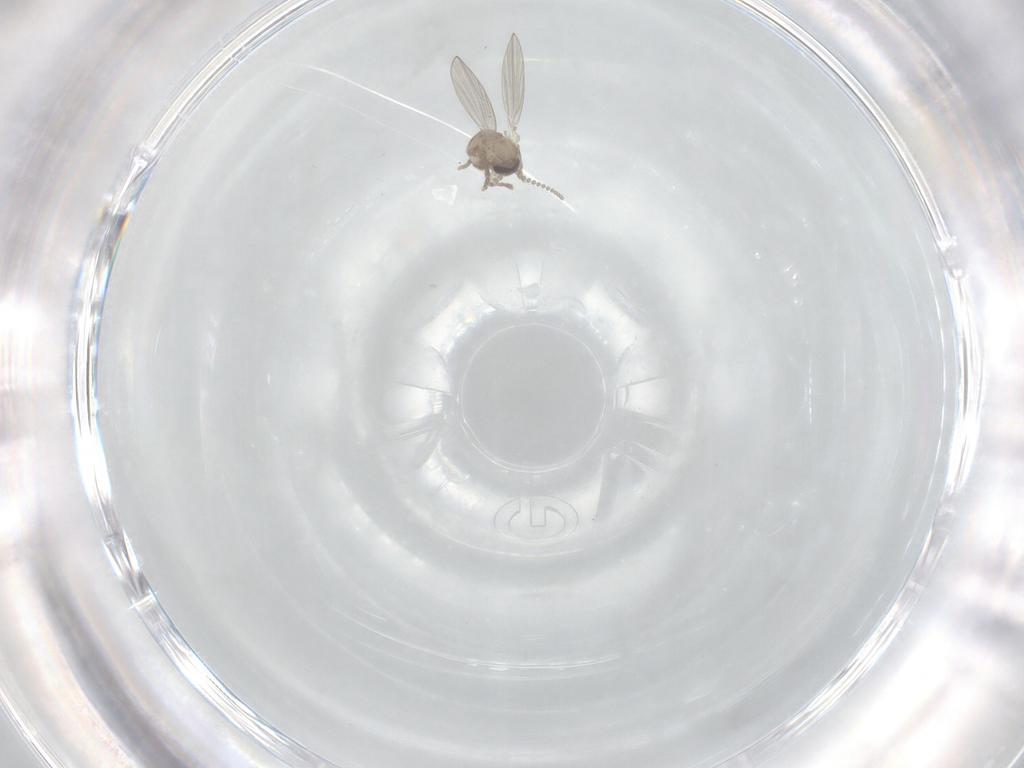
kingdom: Animalia
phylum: Arthropoda
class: Insecta
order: Diptera
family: Psychodidae
